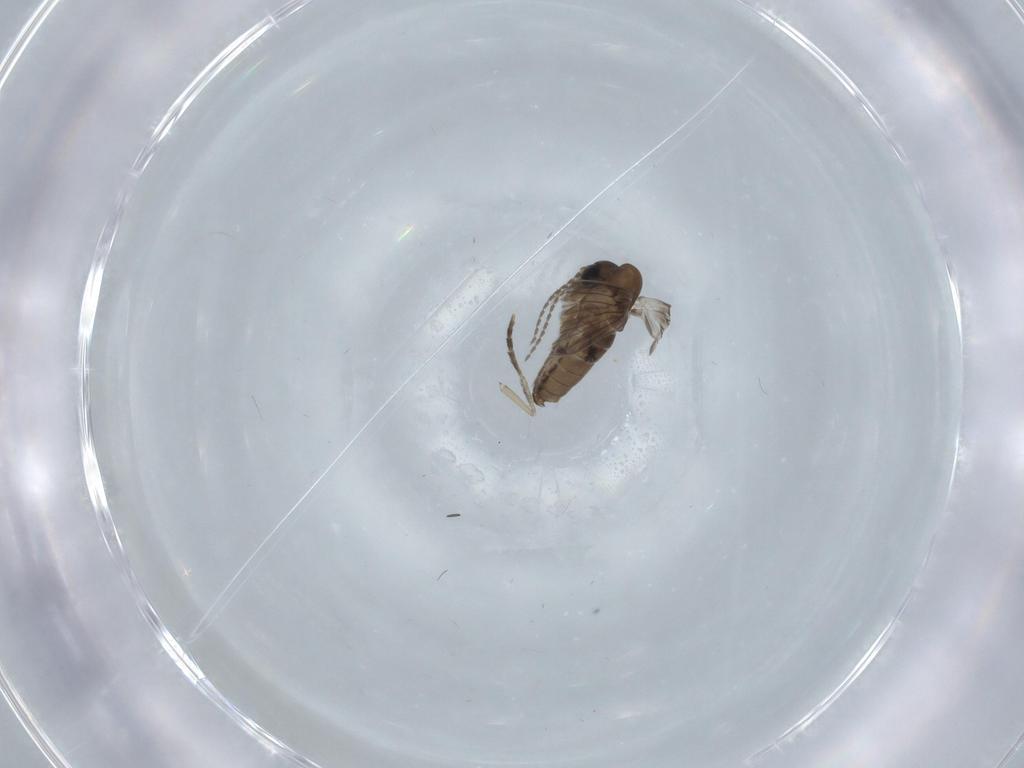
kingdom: Animalia
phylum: Arthropoda
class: Insecta
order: Diptera
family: Psychodidae
